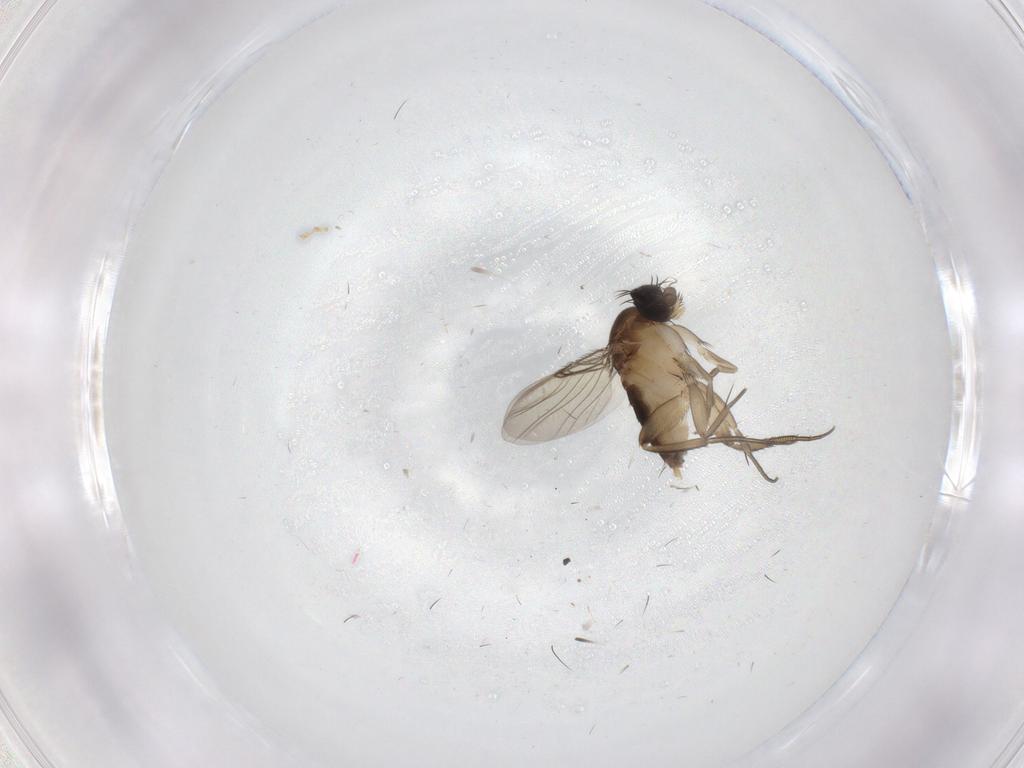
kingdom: Animalia
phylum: Arthropoda
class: Insecta
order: Diptera
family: Phoridae
